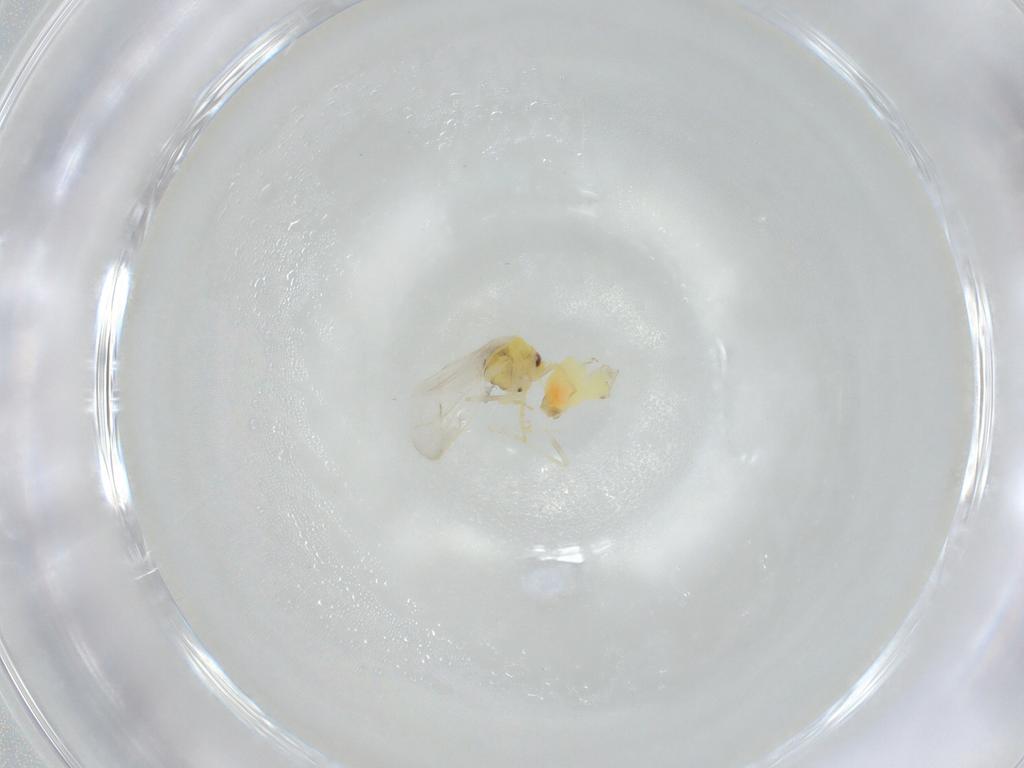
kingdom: Animalia
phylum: Arthropoda
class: Insecta
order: Hemiptera
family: Aleyrodidae
